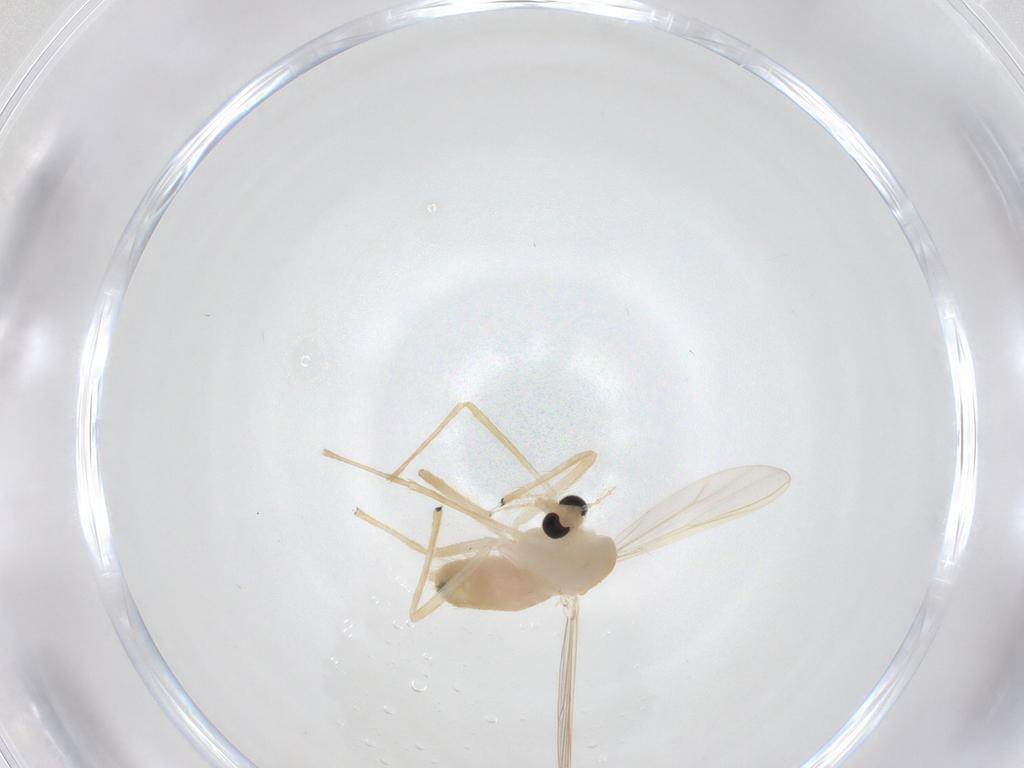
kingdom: Animalia
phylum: Arthropoda
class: Insecta
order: Diptera
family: Chironomidae
